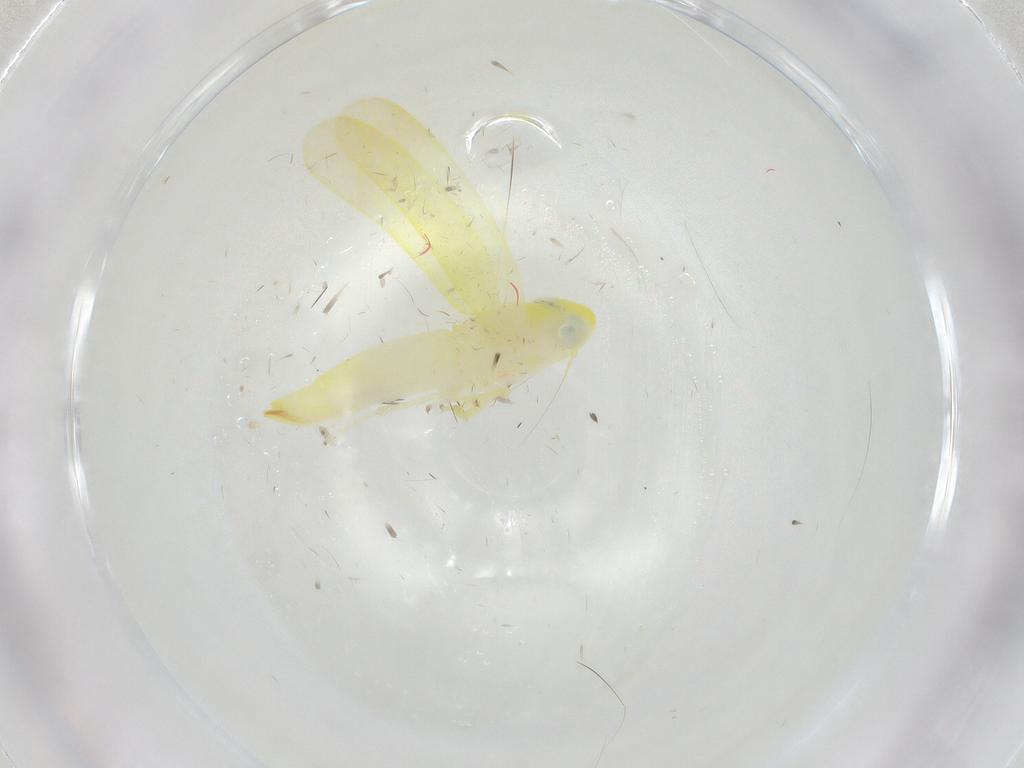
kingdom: Animalia
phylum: Arthropoda
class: Insecta
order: Hemiptera
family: Cicadellidae
